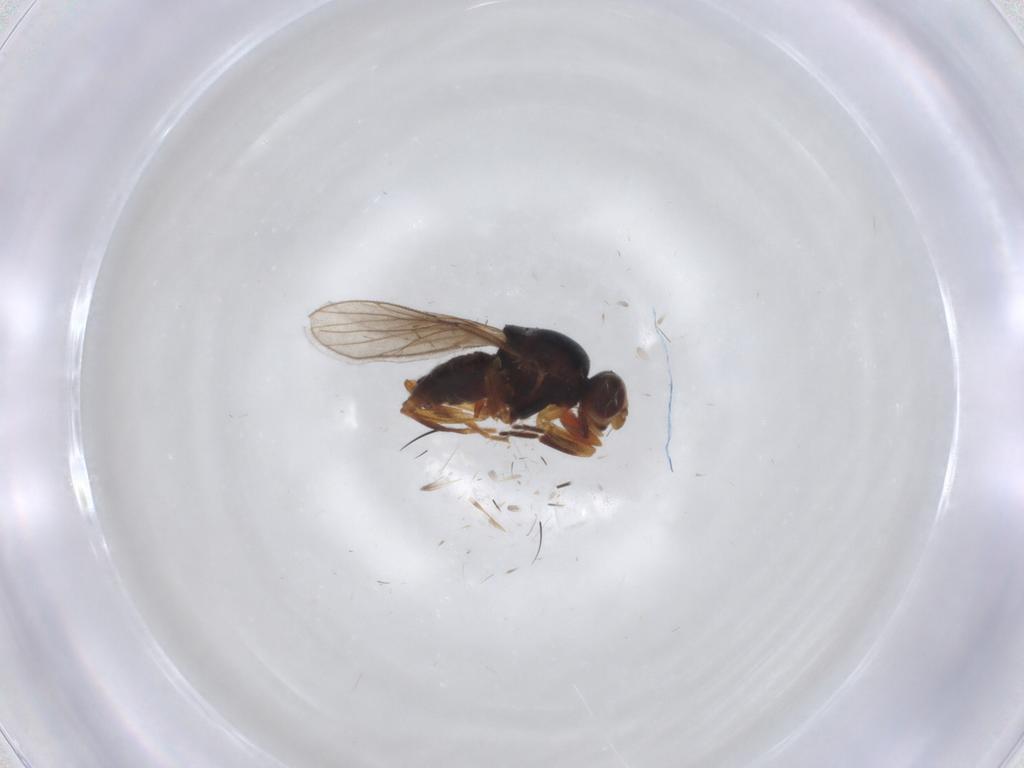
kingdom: Animalia
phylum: Arthropoda
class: Insecta
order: Diptera
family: Chloropidae
